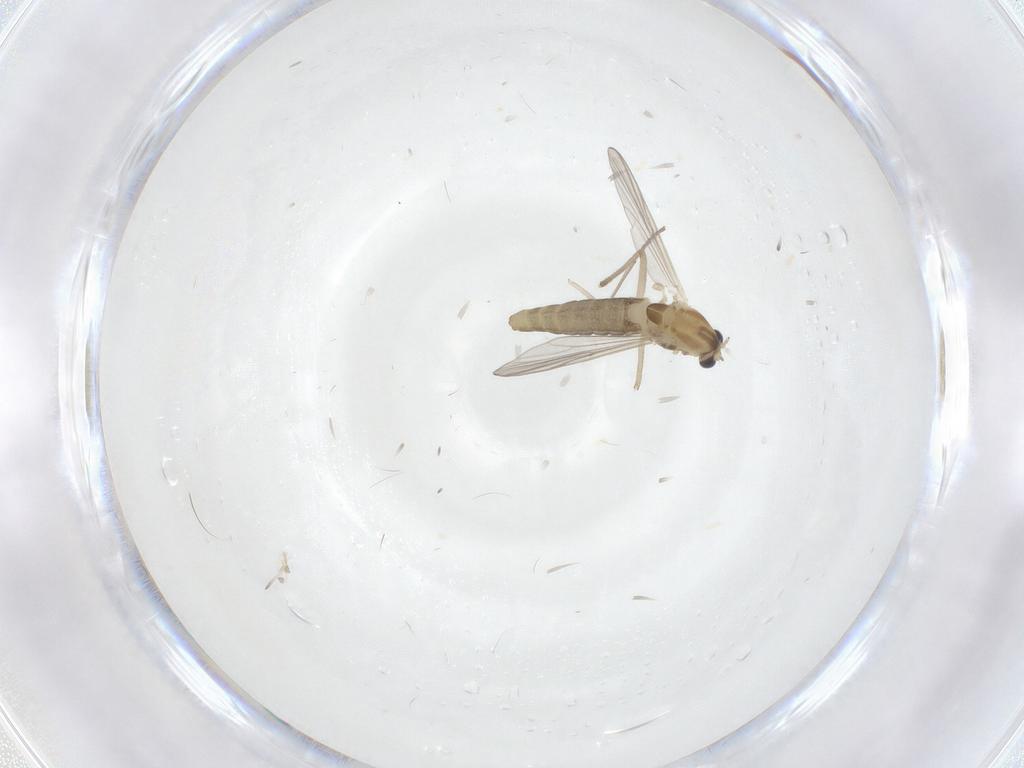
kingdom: Animalia
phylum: Arthropoda
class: Insecta
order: Diptera
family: Chironomidae
